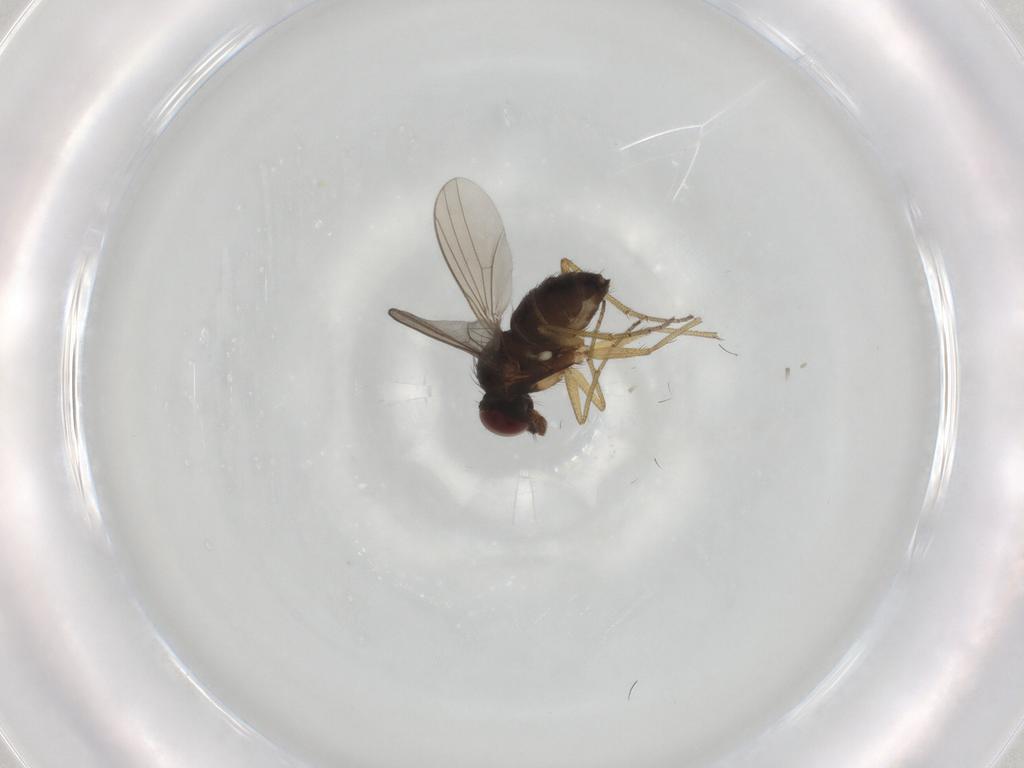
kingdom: Animalia
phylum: Arthropoda
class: Insecta
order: Diptera
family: Dolichopodidae
